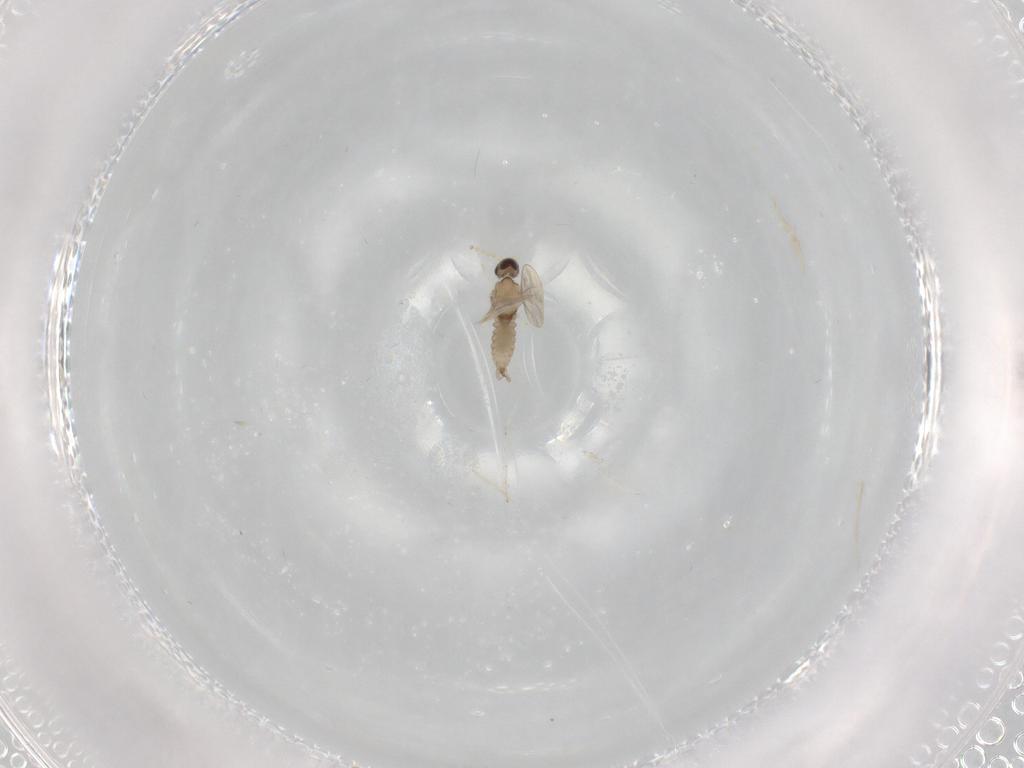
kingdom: Animalia
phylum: Arthropoda
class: Insecta
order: Diptera
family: Cecidomyiidae
